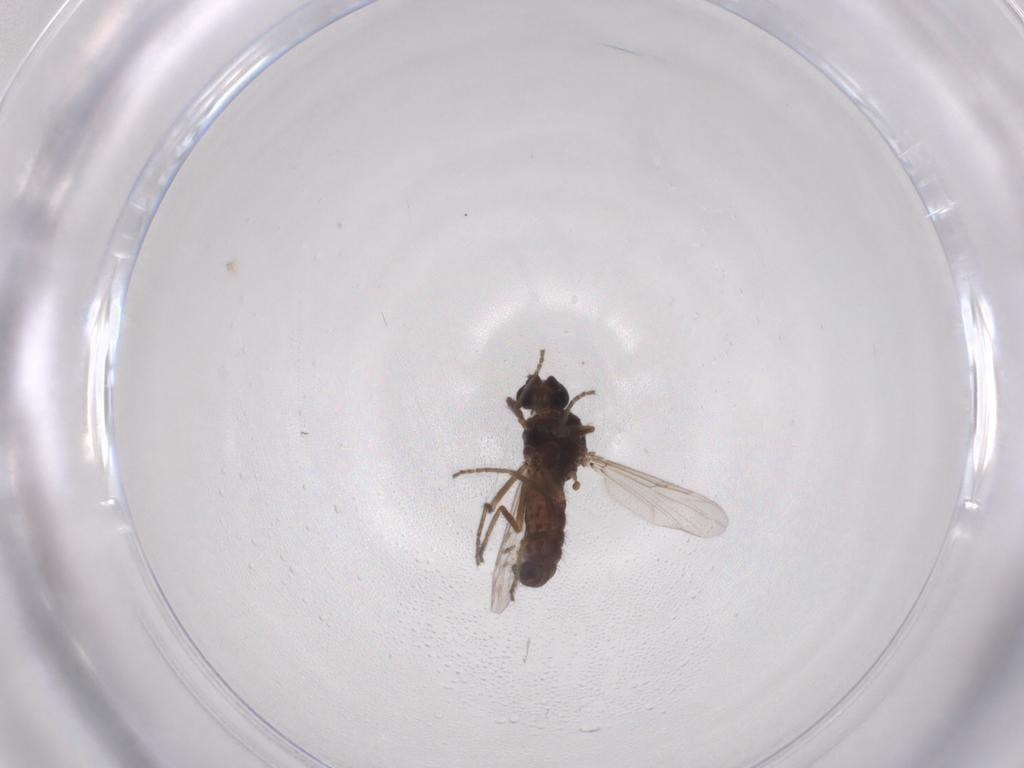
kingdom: Animalia
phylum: Arthropoda
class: Insecta
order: Diptera
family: Ceratopogonidae
